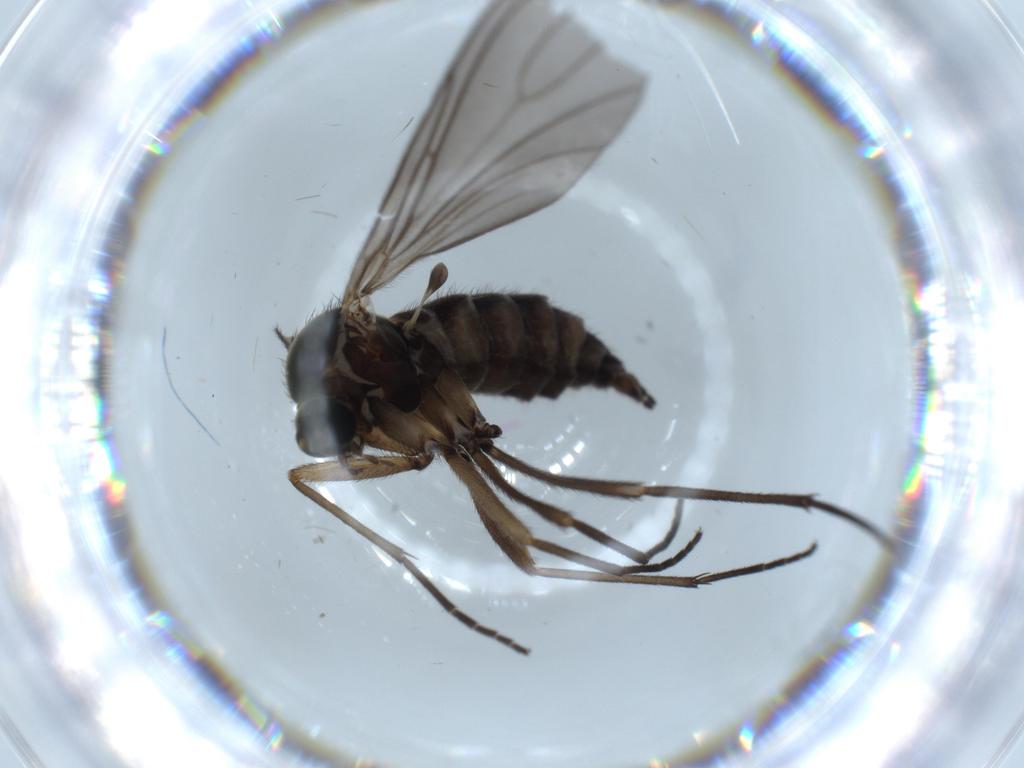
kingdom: Animalia
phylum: Arthropoda
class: Insecta
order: Diptera
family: Sciaridae
